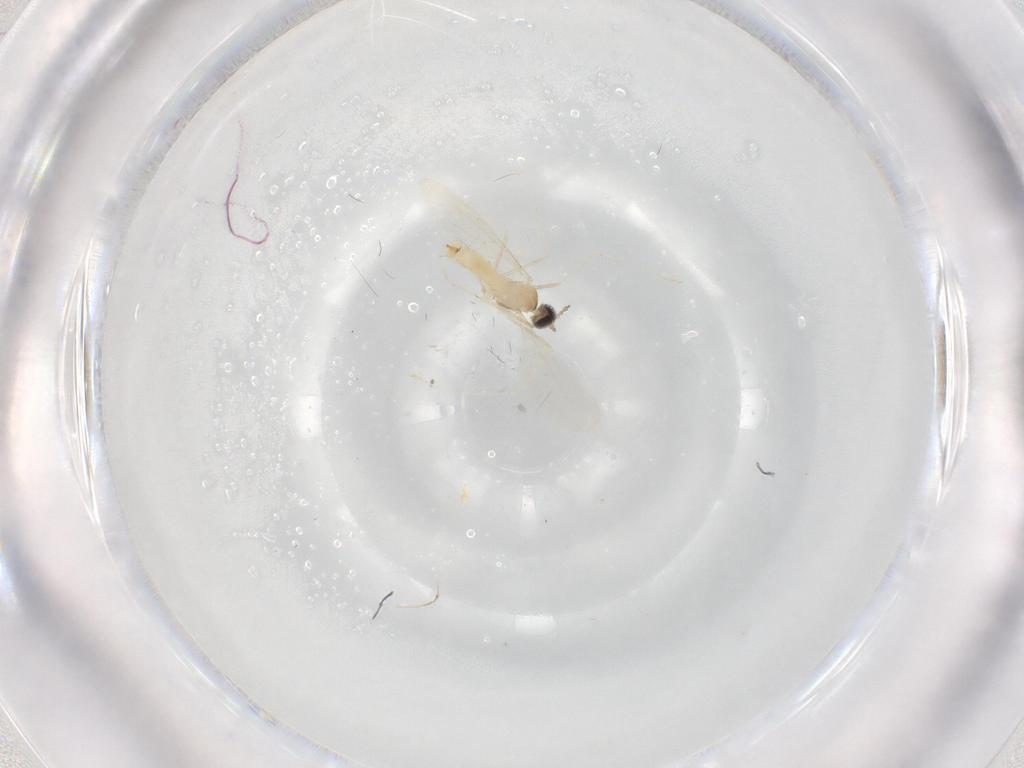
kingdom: Animalia
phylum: Arthropoda
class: Insecta
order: Diptera
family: Cecidomyiidae
